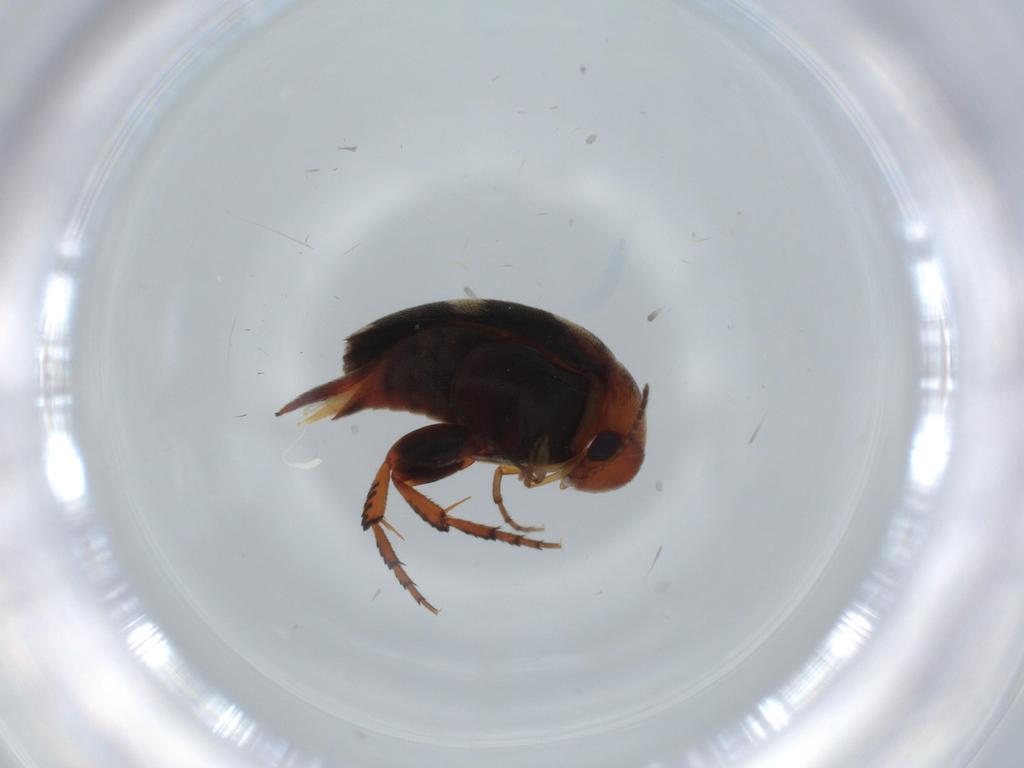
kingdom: Animalia
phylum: Arthropoda
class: Insecta
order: Coleoptera
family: Mordellidae
